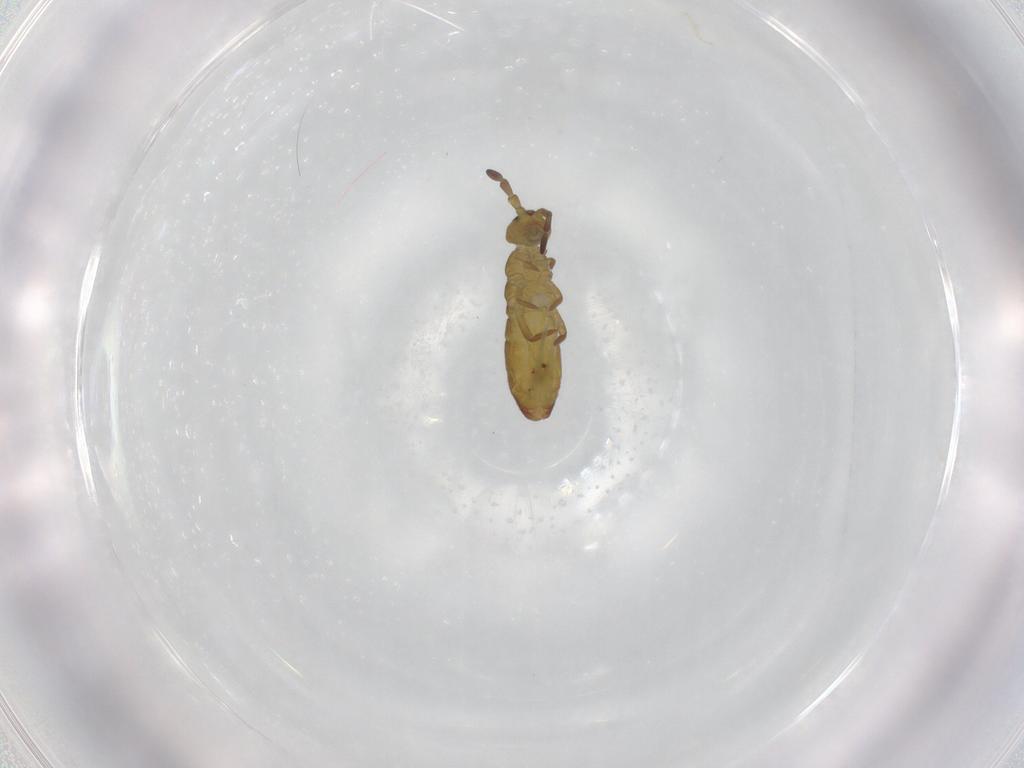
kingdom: Animalia
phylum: Arthropoda
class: Collembola
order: Entomobryomorpha
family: Isotomidae
